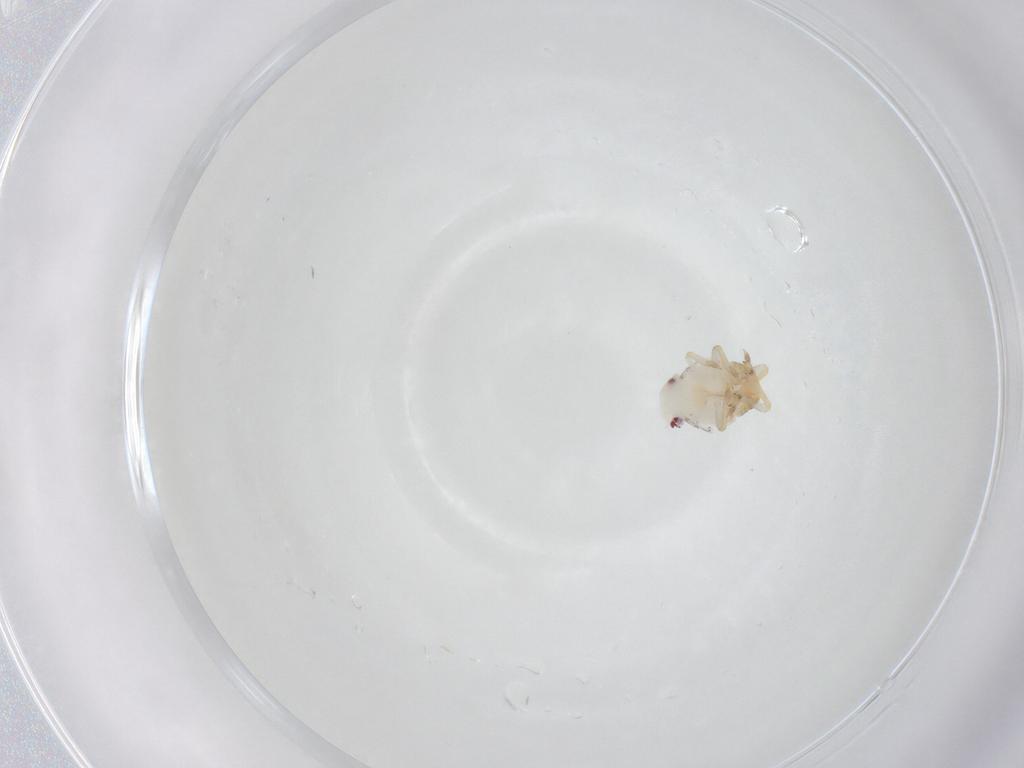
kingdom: Animalia
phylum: Arthropoda
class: Insecta
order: Hemiptera
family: Flatidae
